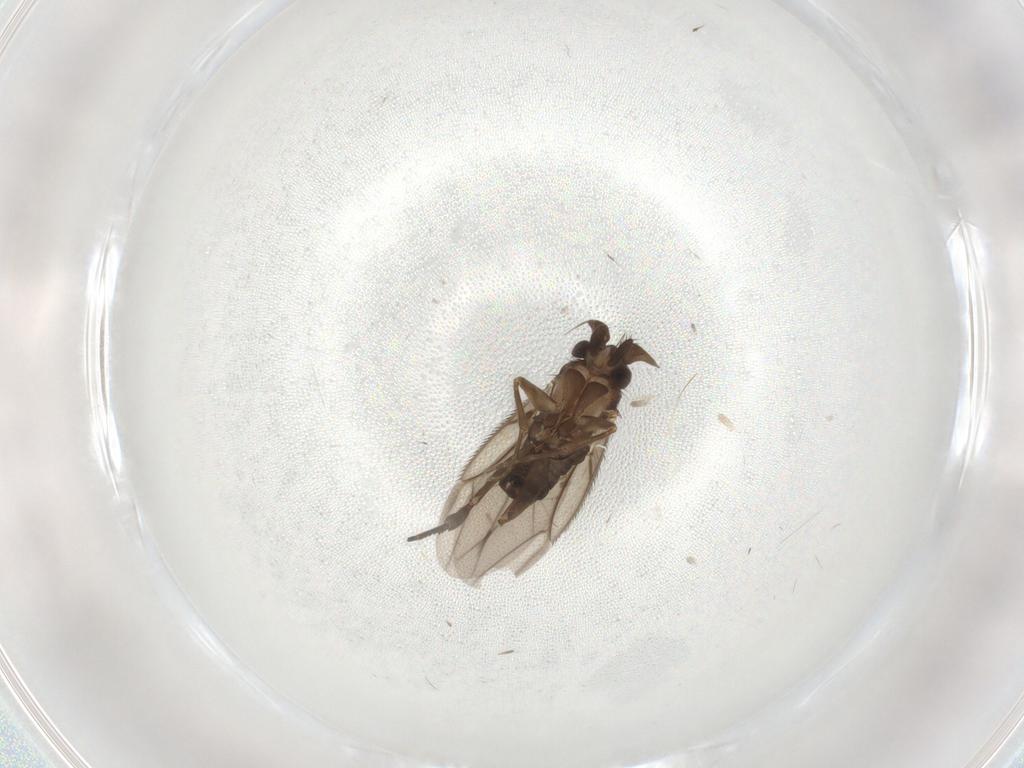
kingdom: Animalia
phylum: Arthropoda
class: Insecta
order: Diptera
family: Phoridae
